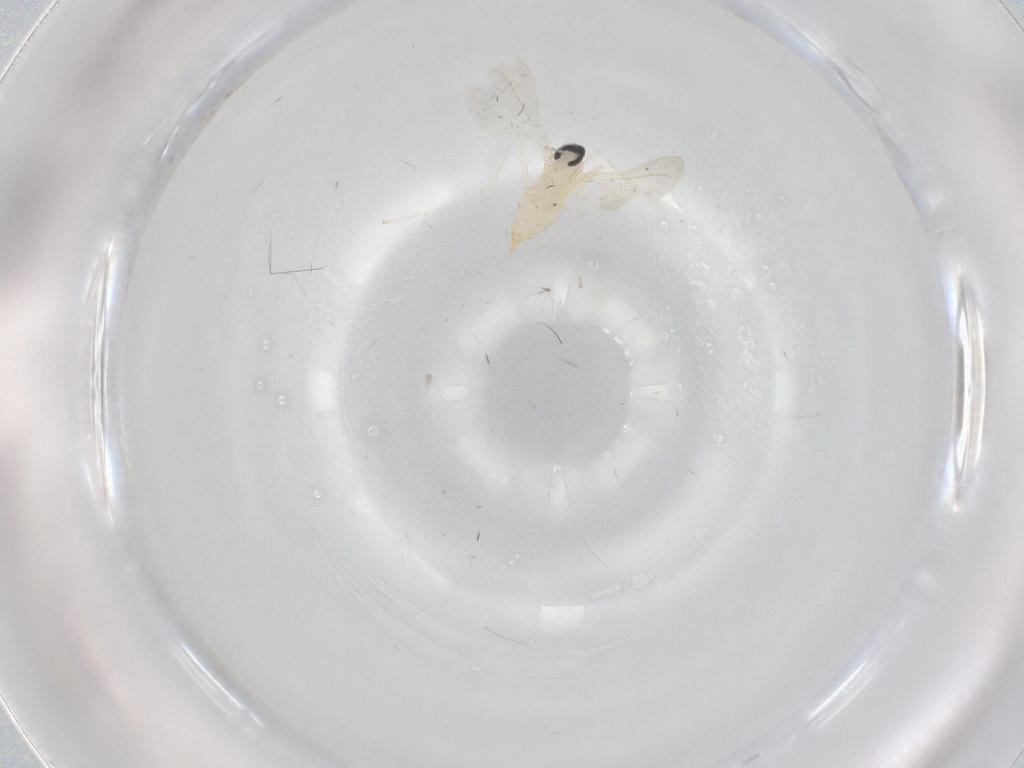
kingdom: Animalia
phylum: Arthropoda
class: Insecta
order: Diptera
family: Cecidomyiidae
